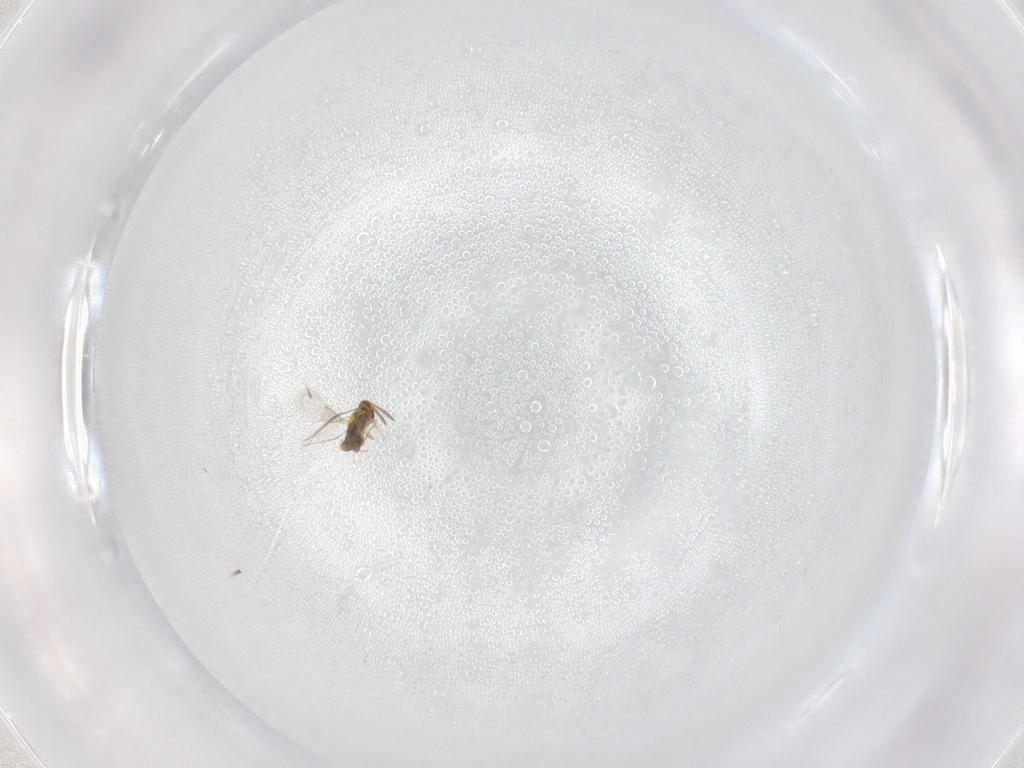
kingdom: Animalia
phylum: Arthropoda
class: Insecta
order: Hymenoptera
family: Aphelinidae
